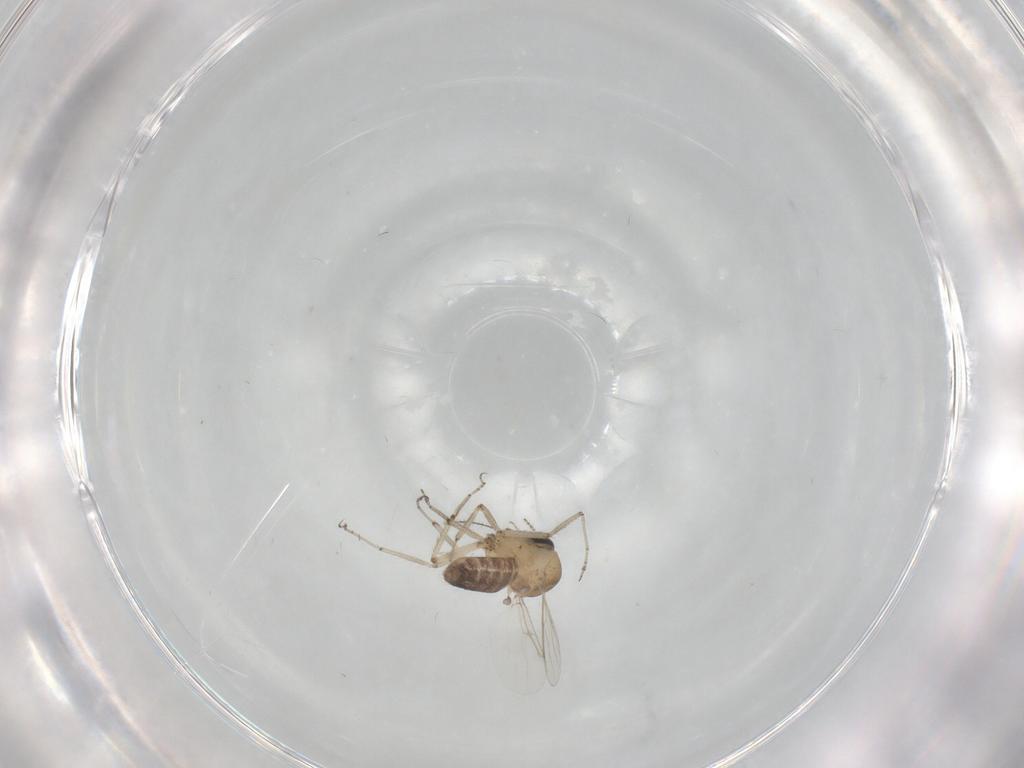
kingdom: Animalia
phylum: Arthropoda
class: Insecta
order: Diptera
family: Ceratopogonidae
